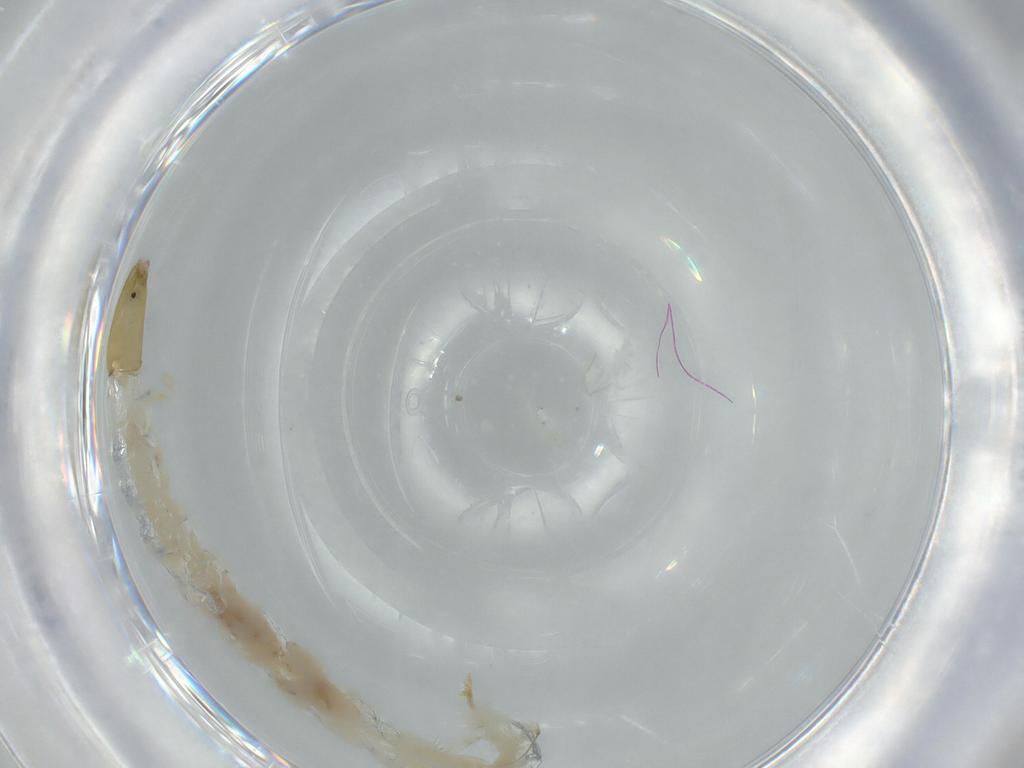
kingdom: Animalia
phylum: Arthropoda
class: Insecta
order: Diptera
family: Chironomidae
